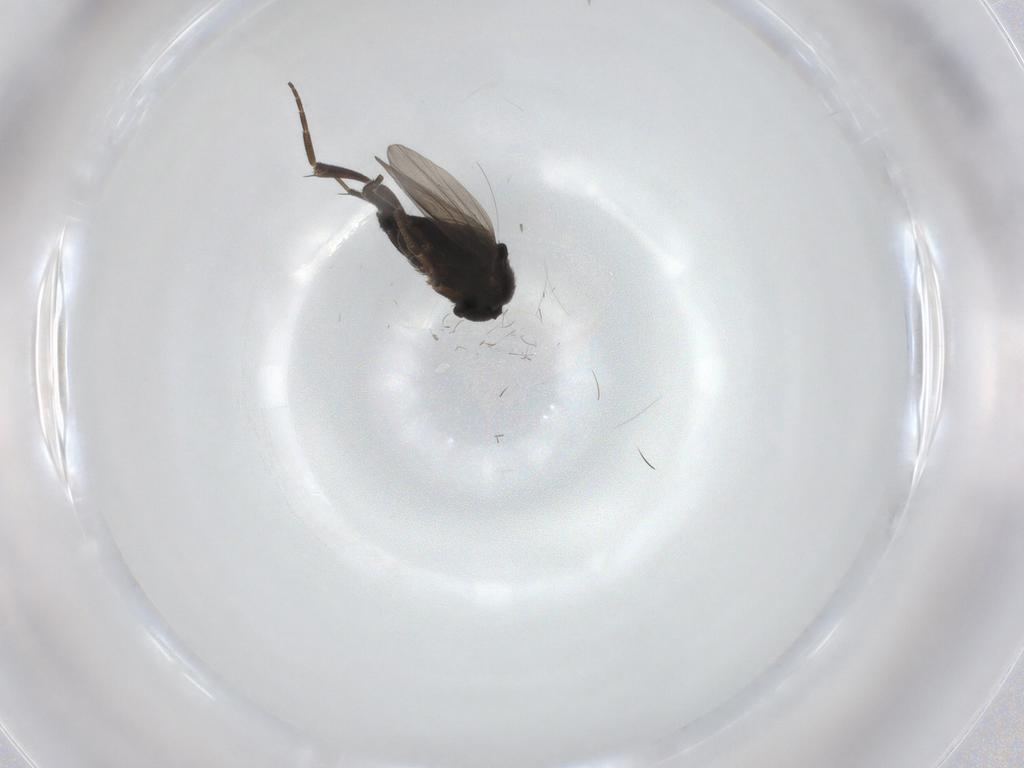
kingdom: Animalia
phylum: Arthropoda
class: Insecta
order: Diptera
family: Phoridae
